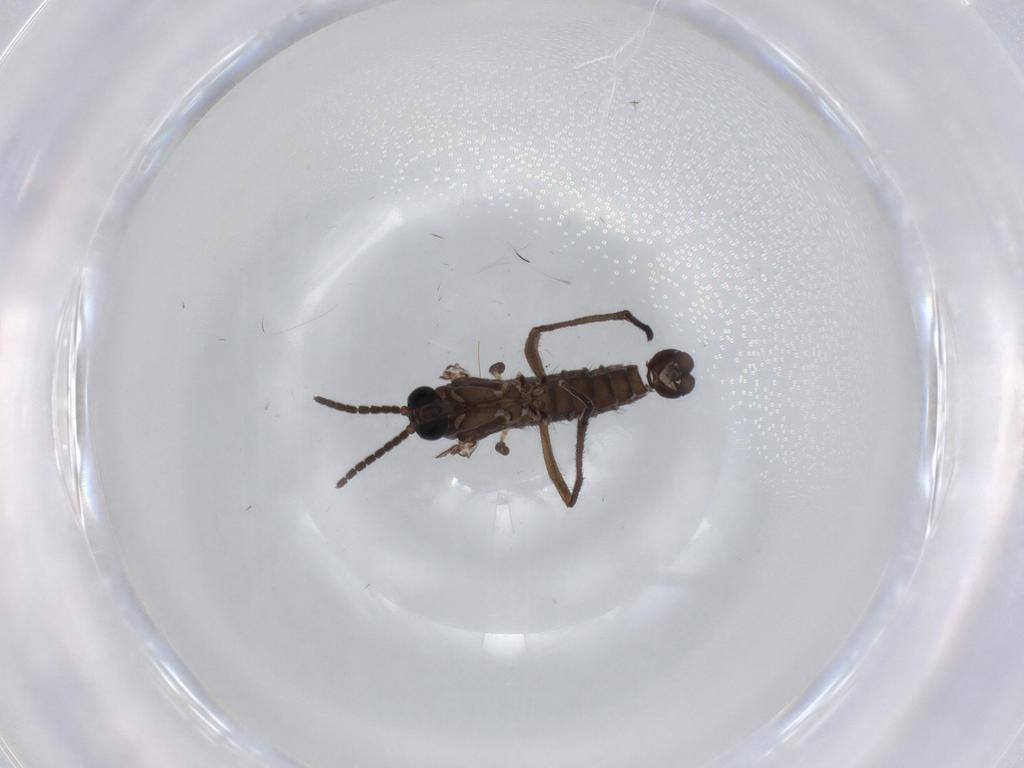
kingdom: Animalia
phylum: Arthropoda
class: Insecta
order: Diptera
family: Sciaridae
